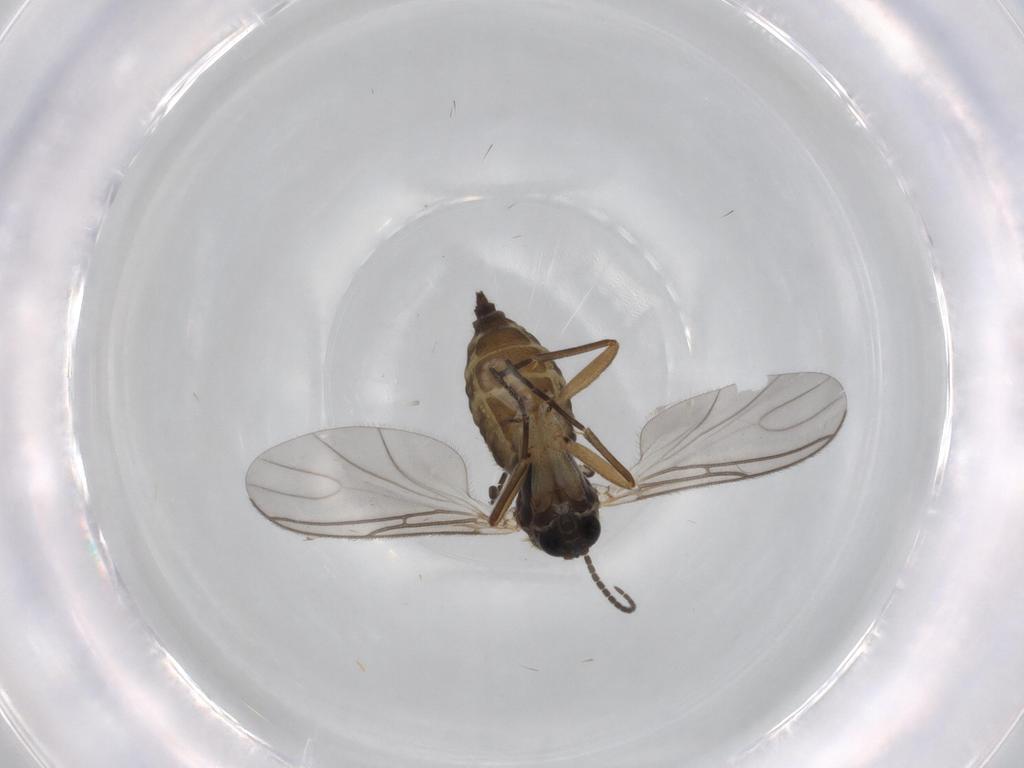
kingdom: Animalia
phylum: Arthropoda
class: Insecta
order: Diptera
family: Sciaridae
